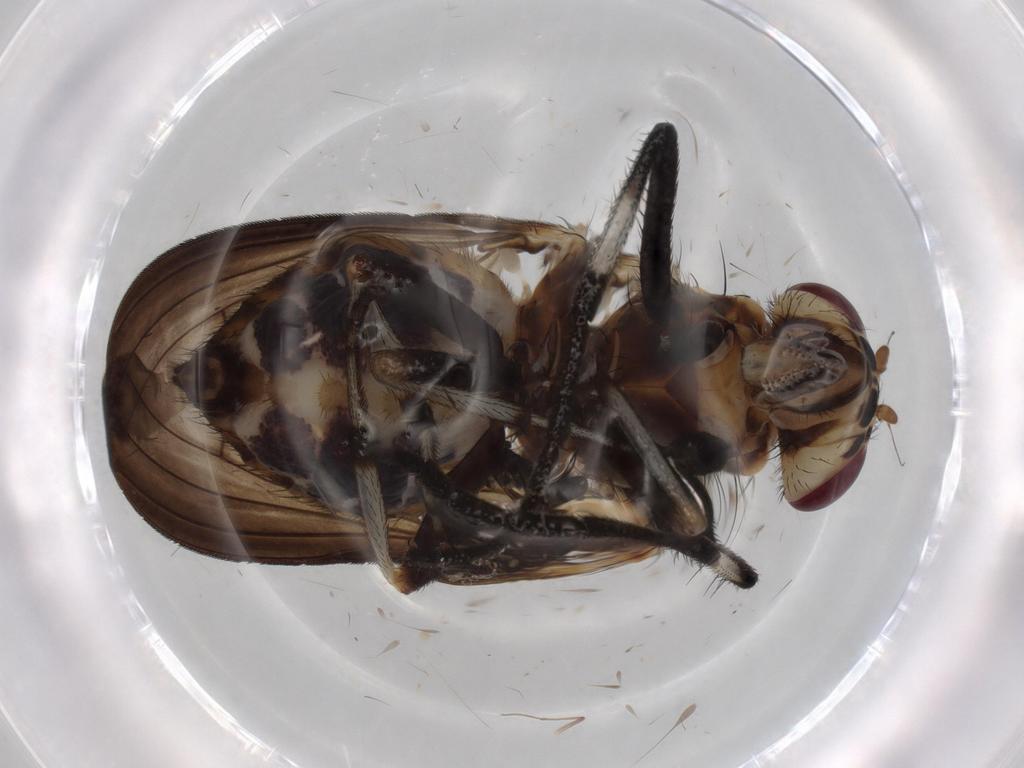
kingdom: Animalia
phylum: Arthropoda
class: Insecta
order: Diptera
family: Lauxaniidae
